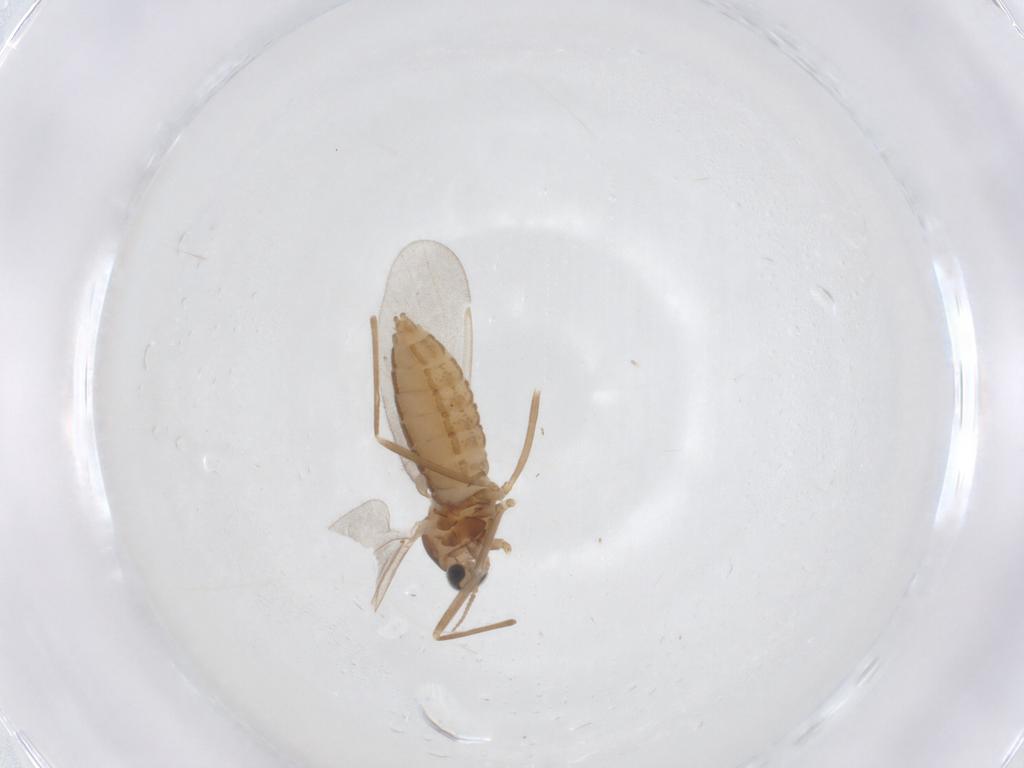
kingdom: Animalia
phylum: Arthropoda
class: Insecta
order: Diptera
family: Cecidomyiidae
